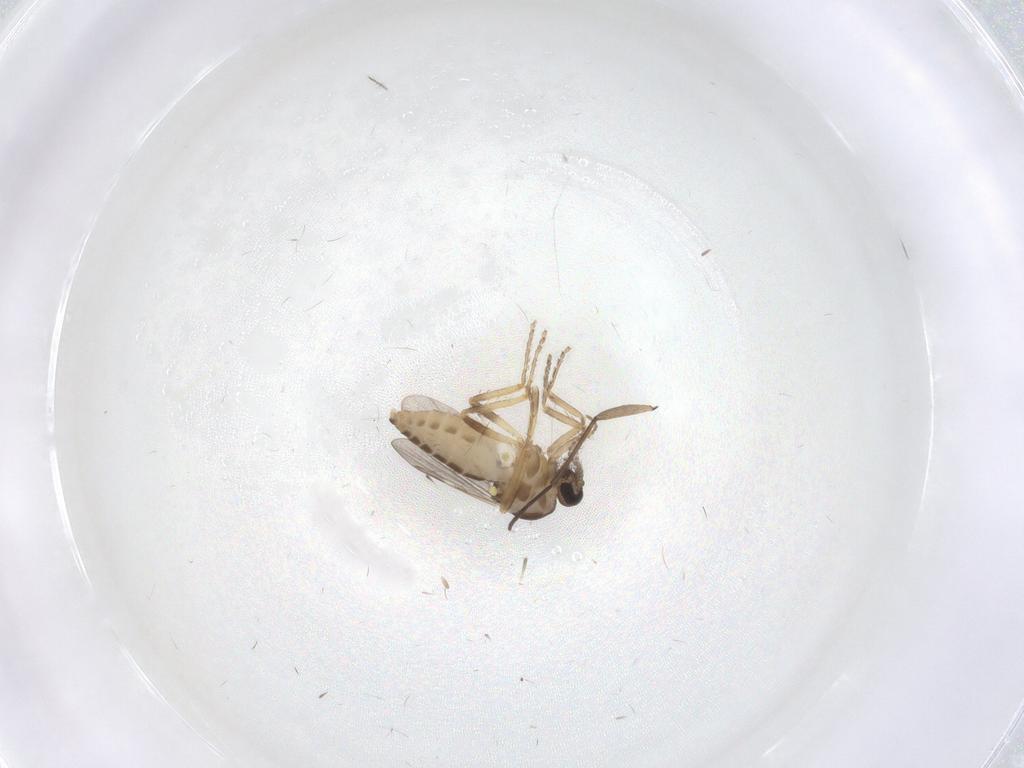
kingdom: Animalia
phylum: Arthropoda
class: Insecta
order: Diptera
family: Ceratopogonidae
